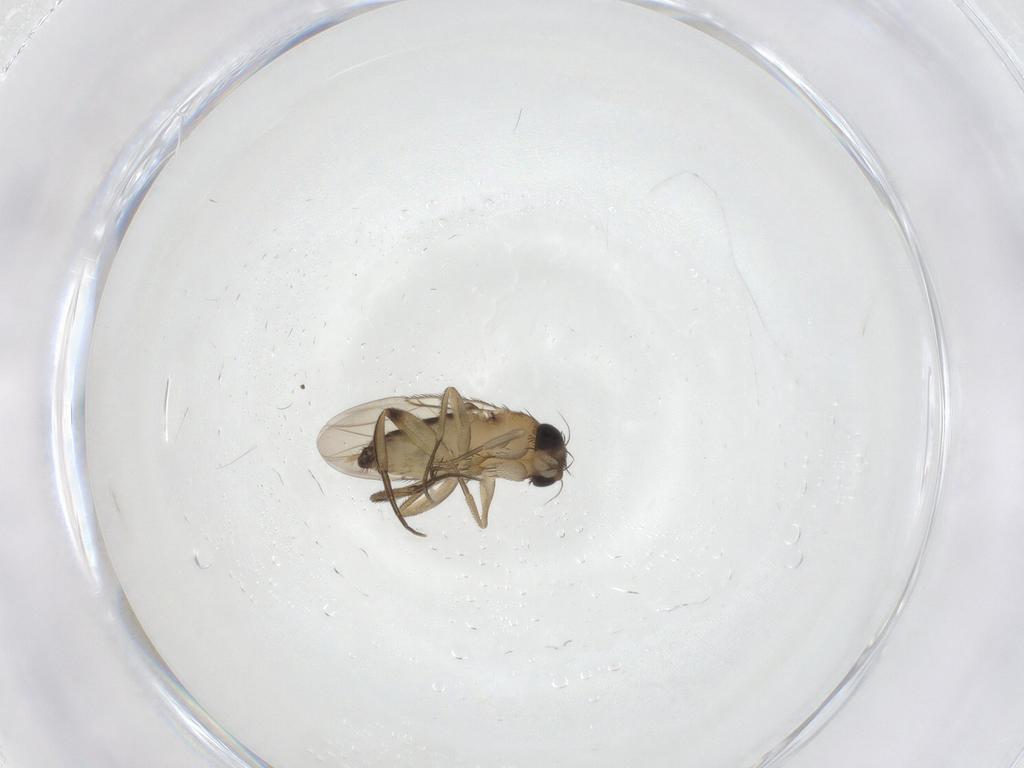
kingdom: Animalia
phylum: Arthropoda
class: Insecta
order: Diptera
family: Phoridae
